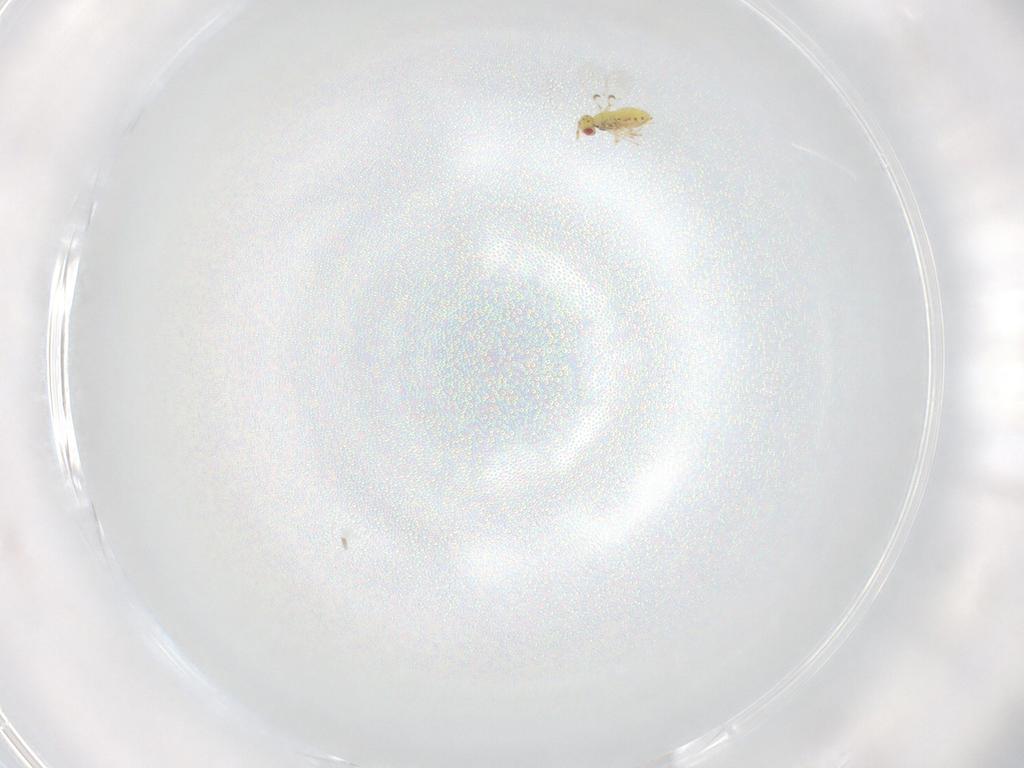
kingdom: Animalia
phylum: Arthropoda
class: Insecta
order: Hymenoptera
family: Trichogrammatidae
